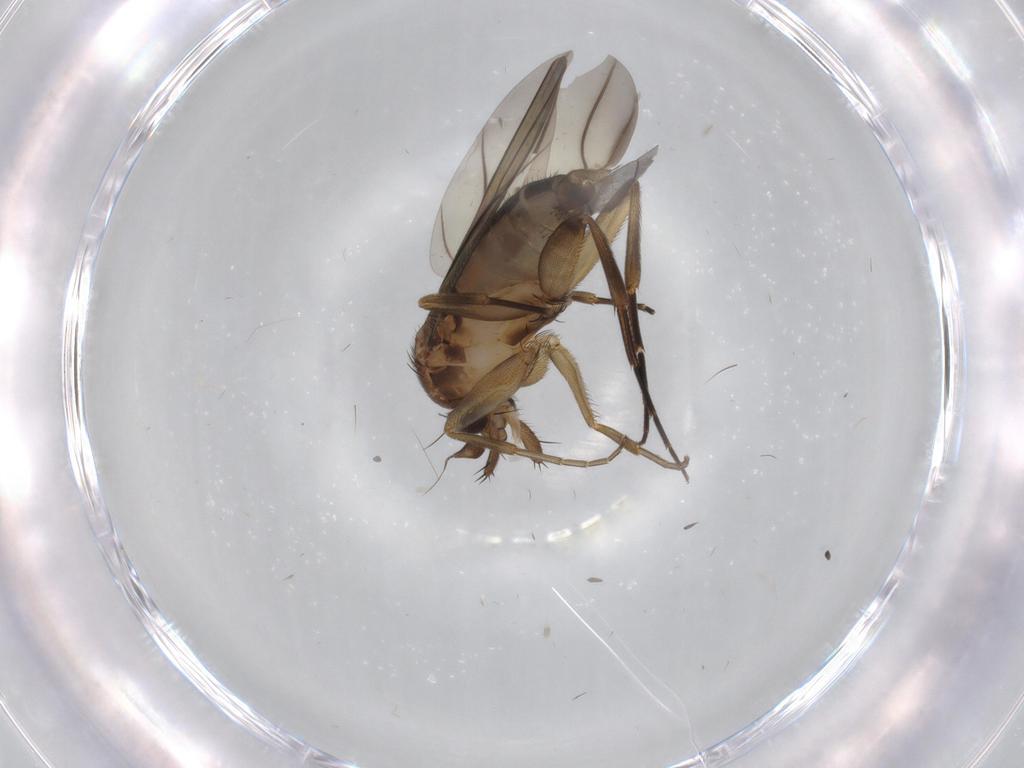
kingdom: Animalia
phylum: Arthropoda
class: Insecta
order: Diptera
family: Phoridae
